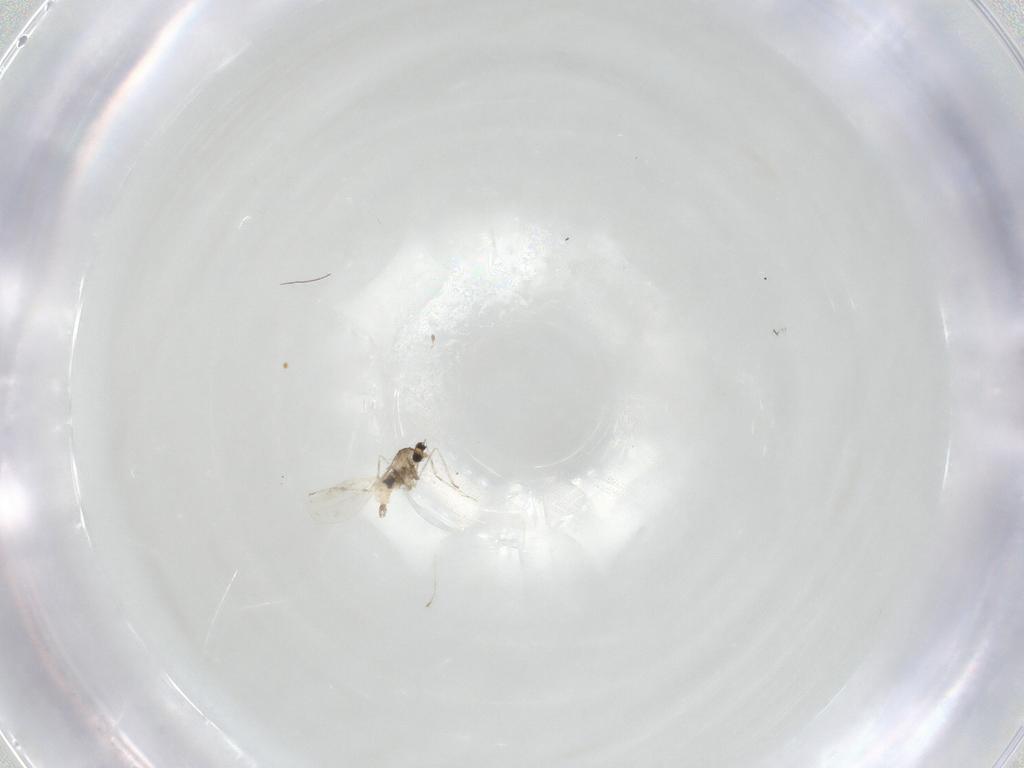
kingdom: Animalia
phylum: Arthropoda
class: Insecta
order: Diptera
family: Cecidomyiidae
